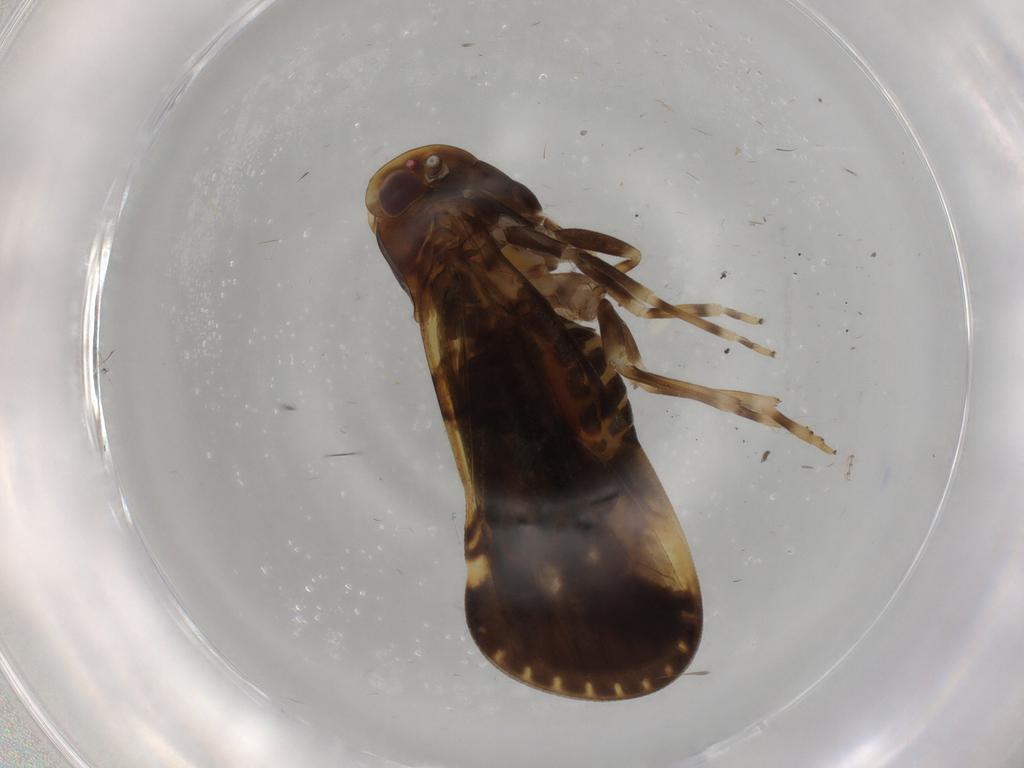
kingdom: Animalia
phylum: Arthropoda
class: Insecta
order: Hemiptera
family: Cixiidae
